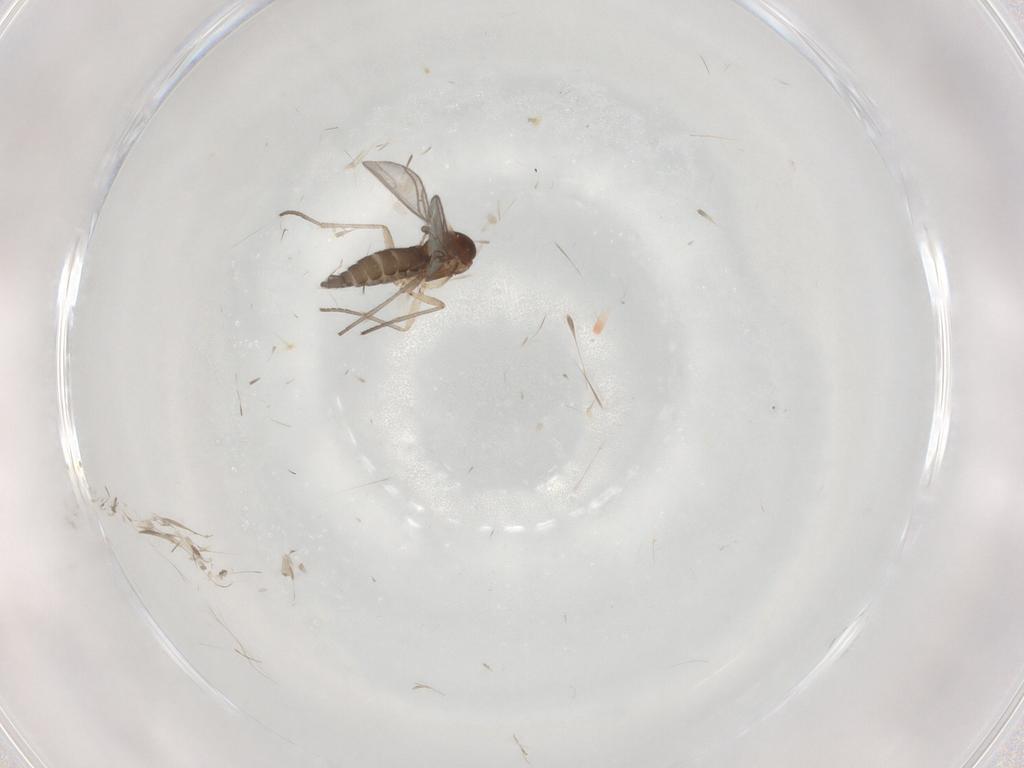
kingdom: Animalia
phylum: Arthropoda
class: Insecta
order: Diptera
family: Sciaridae
